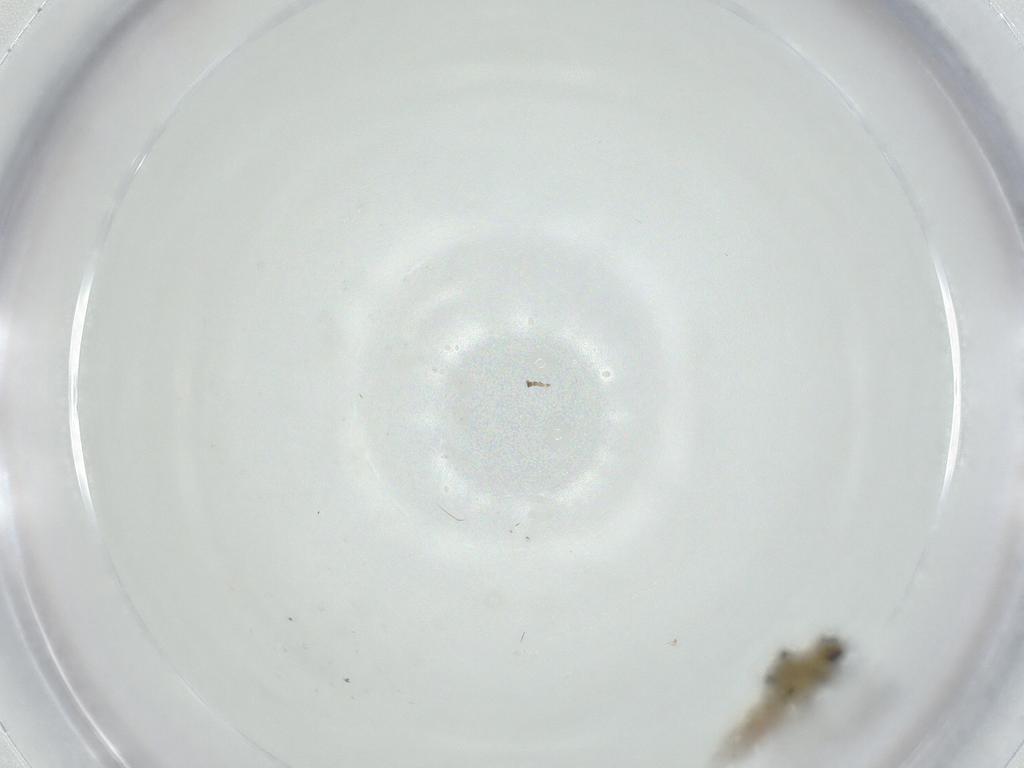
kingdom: Animalia
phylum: Arthropoda
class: Insecta
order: Diptera
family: Agromyzidae
